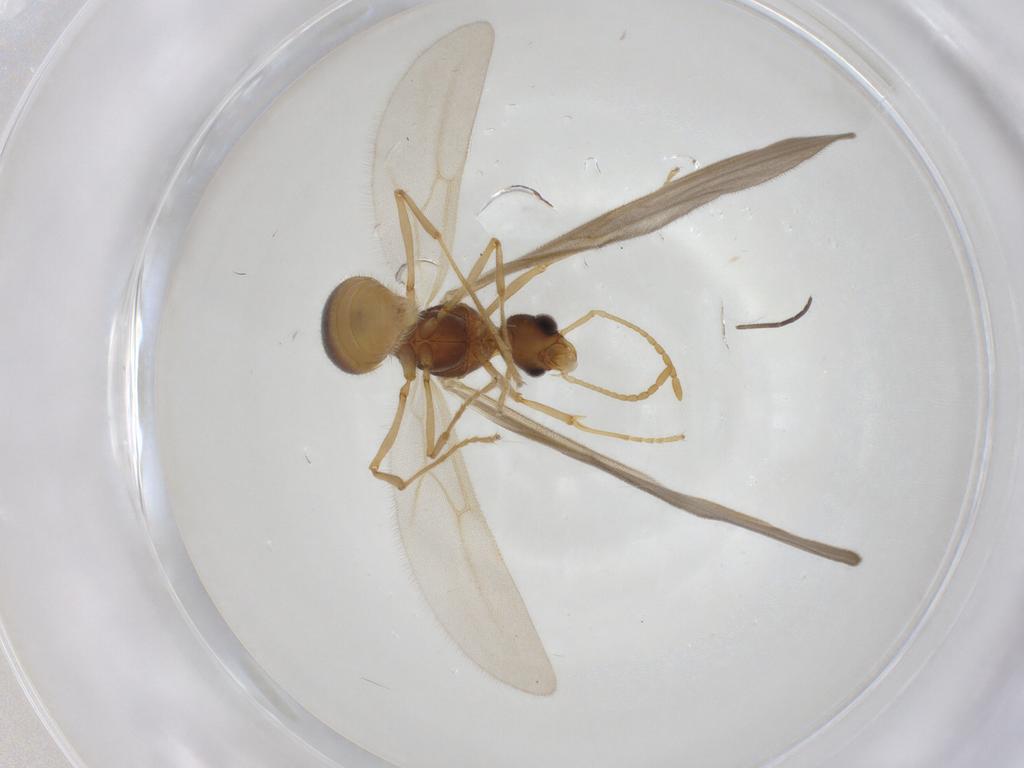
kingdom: Animalia
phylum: Arthropoda
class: Insecta
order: Hymenoptera
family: Formicidae
